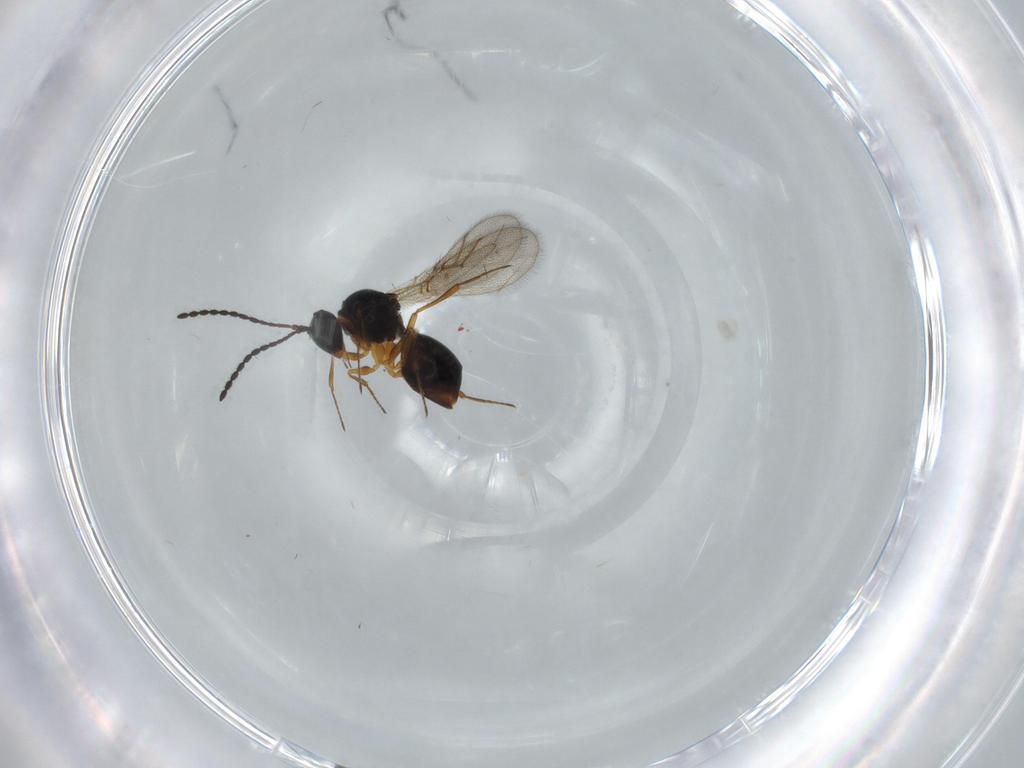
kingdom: Animalia
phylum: Arthropoda
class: Insecta
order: Hymenoptera
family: Figitidae
